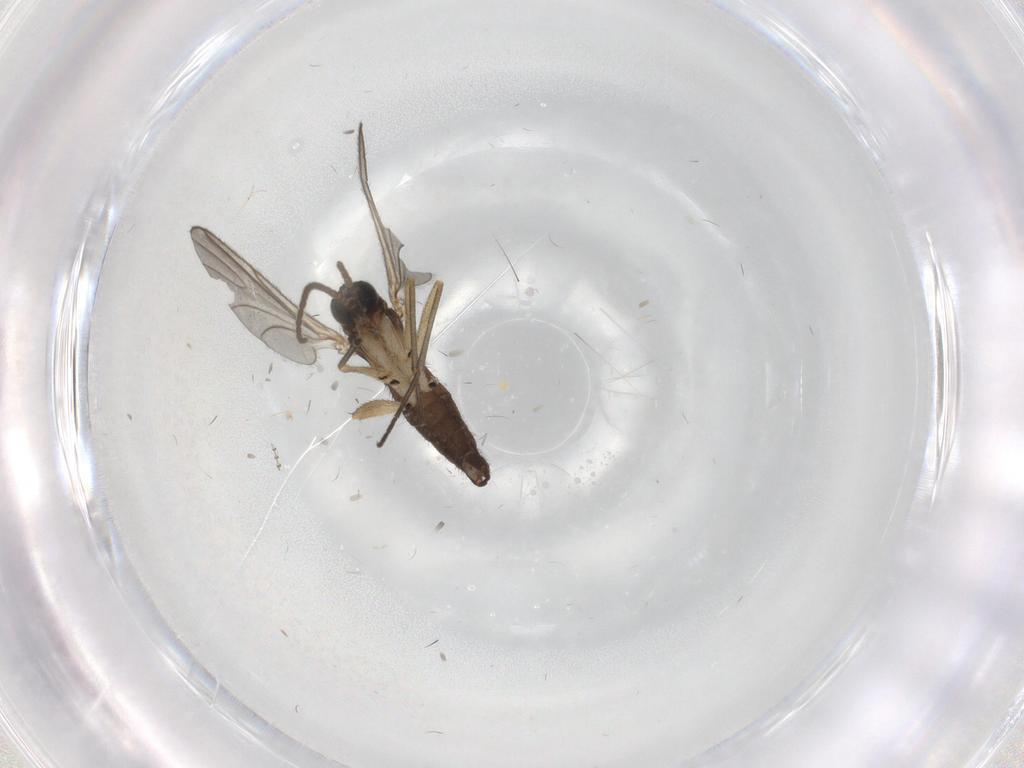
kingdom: Animalia
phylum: Arthropoda
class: Insecta
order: Diptera
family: Sciaridae
